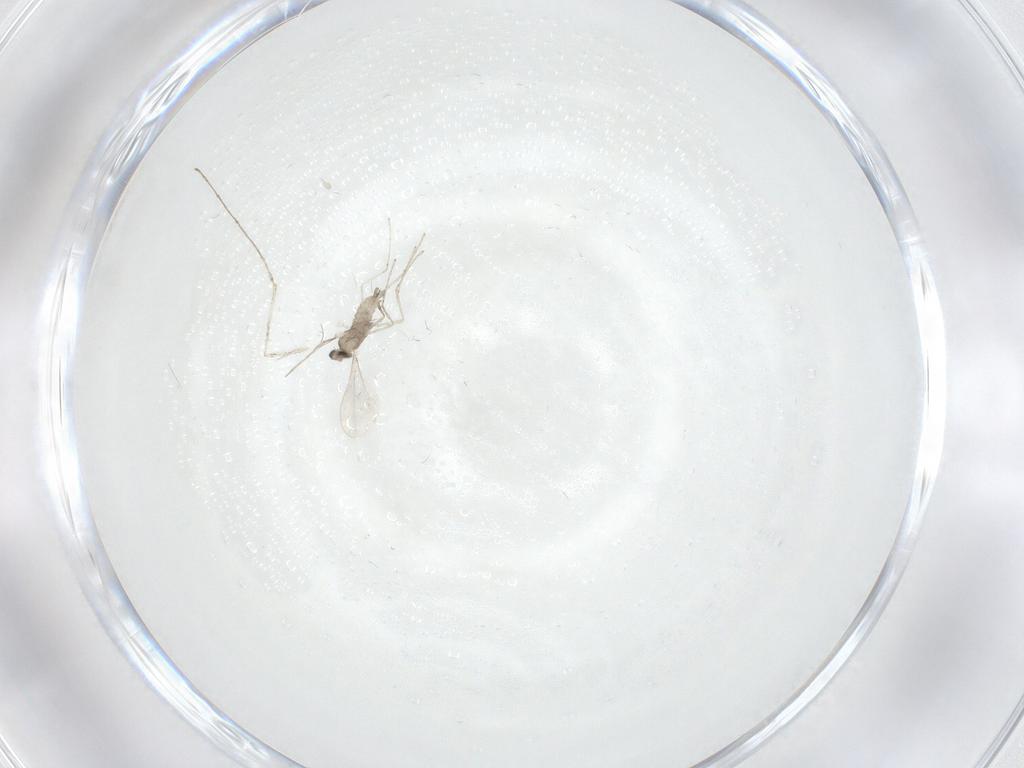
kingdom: Animalia
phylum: Arthropoda
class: Insecta
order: Diptera
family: Cecidomyiidae
